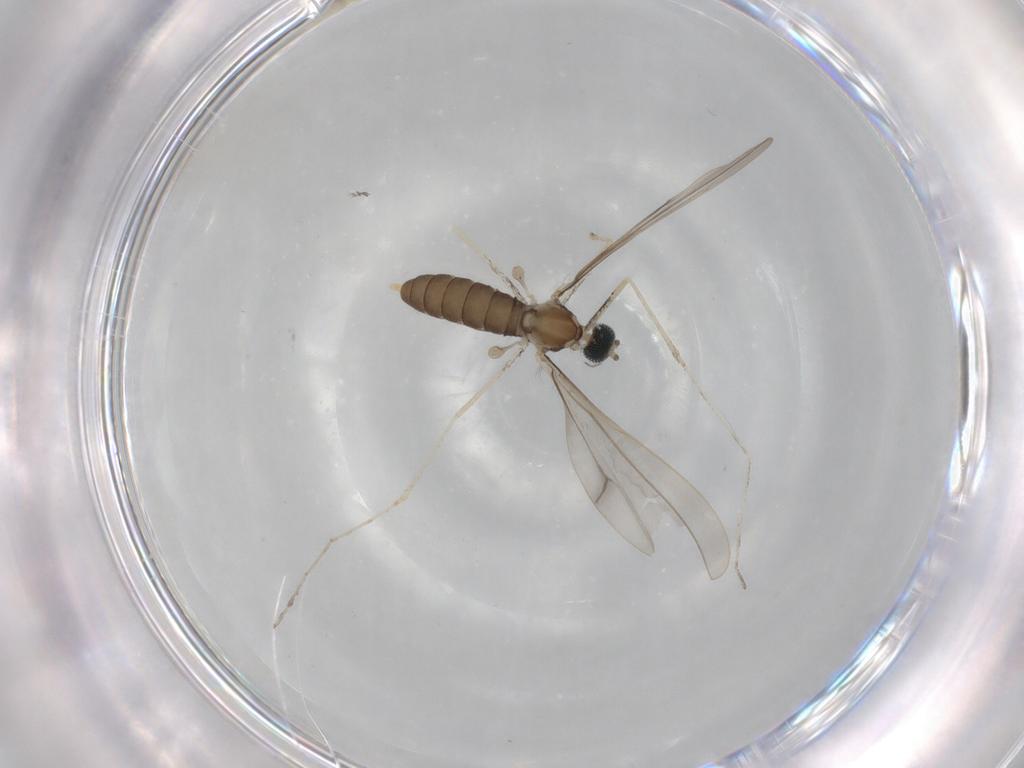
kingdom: Animalia
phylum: Arthropoda
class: Insecta
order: Diptera
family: Cecidomyiidae
